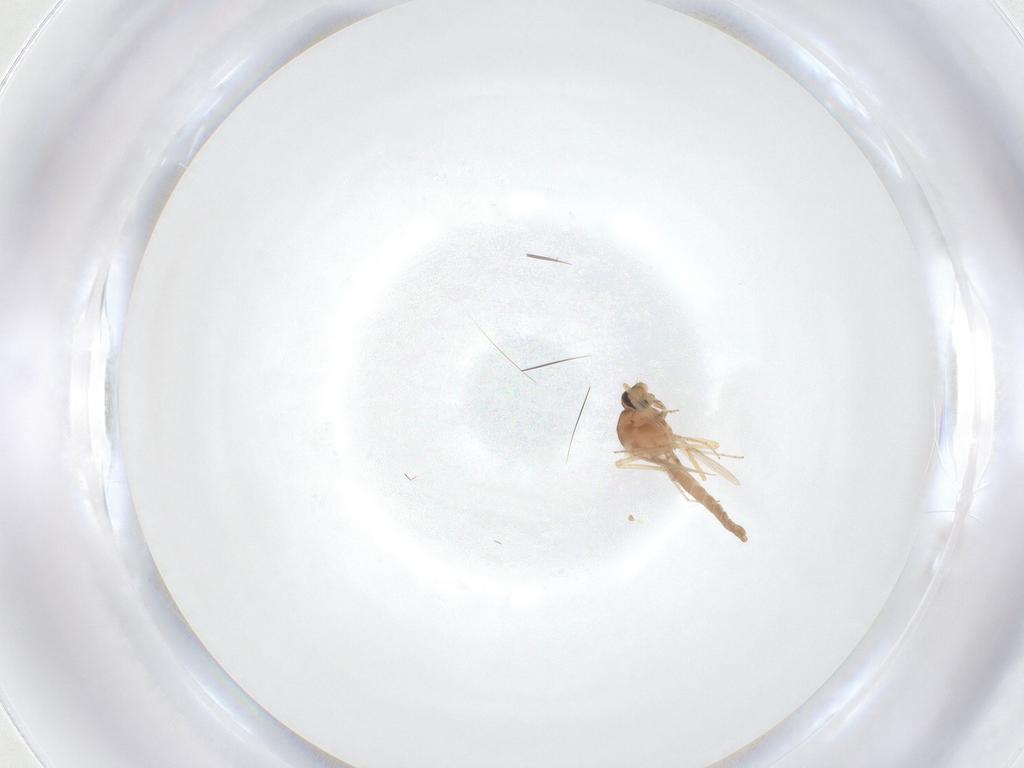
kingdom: Animalia
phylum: Arthropoda
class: Insecta
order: Diptera
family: Ceratopogonidae
